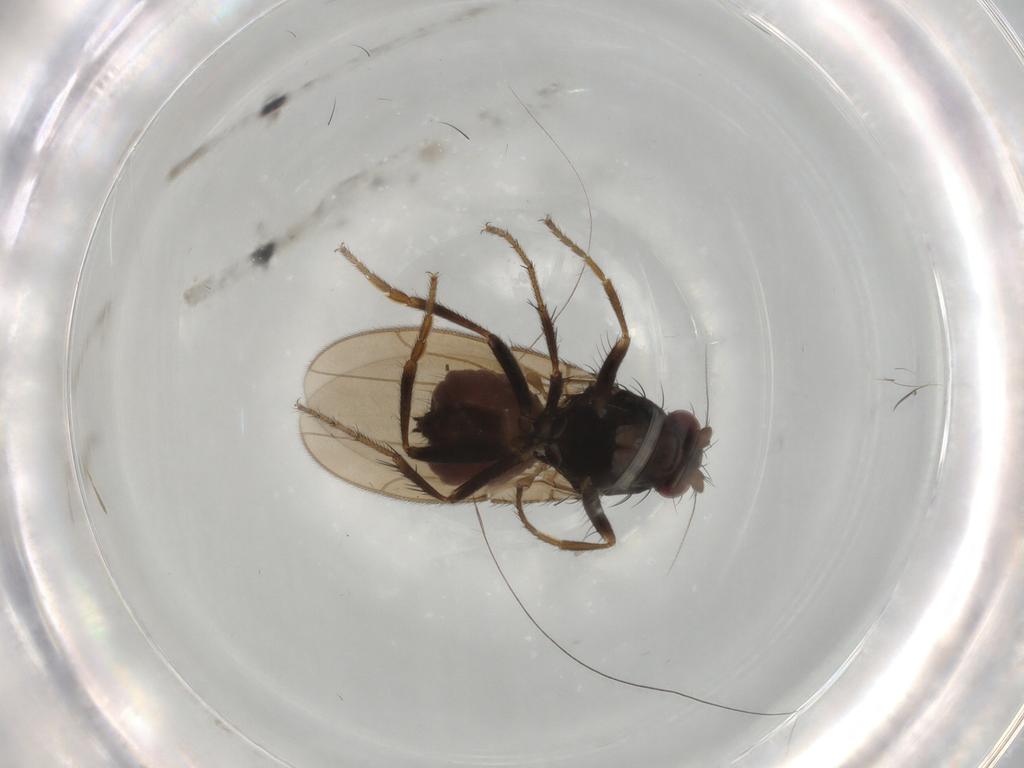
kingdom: Animalia
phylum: Arthropoda
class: Insecta
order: Diptera
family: Sphaeroceridae
